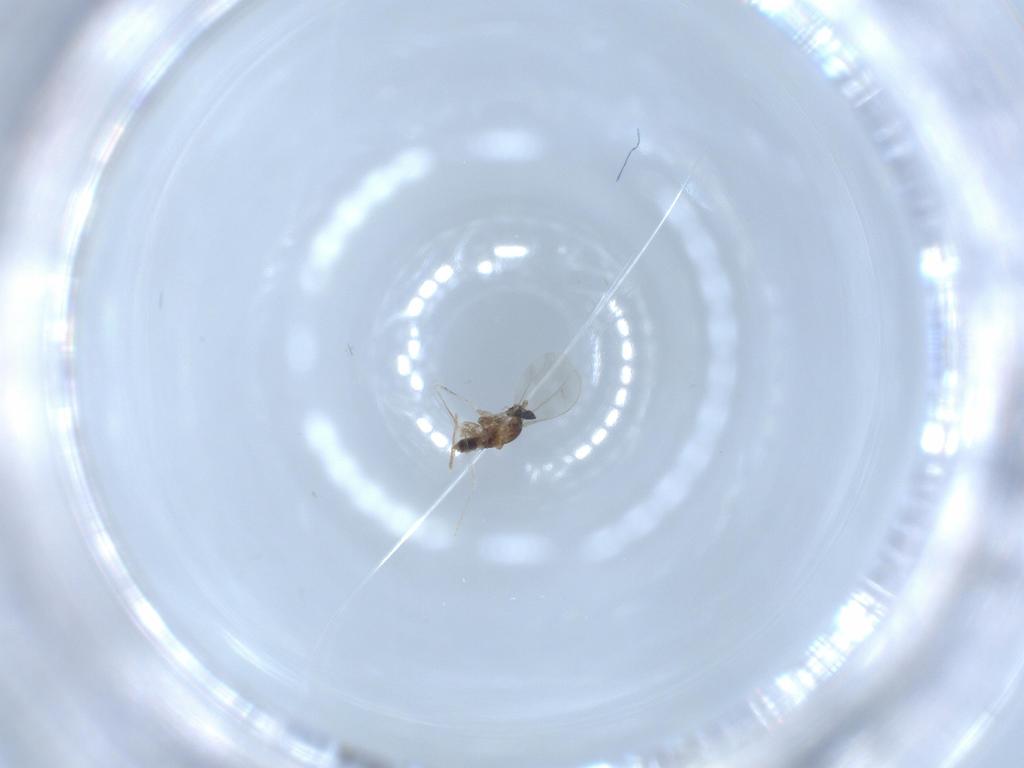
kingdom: Animalia
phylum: Arthropoda
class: Insecta
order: Diptera
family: Cecidomyiidae
